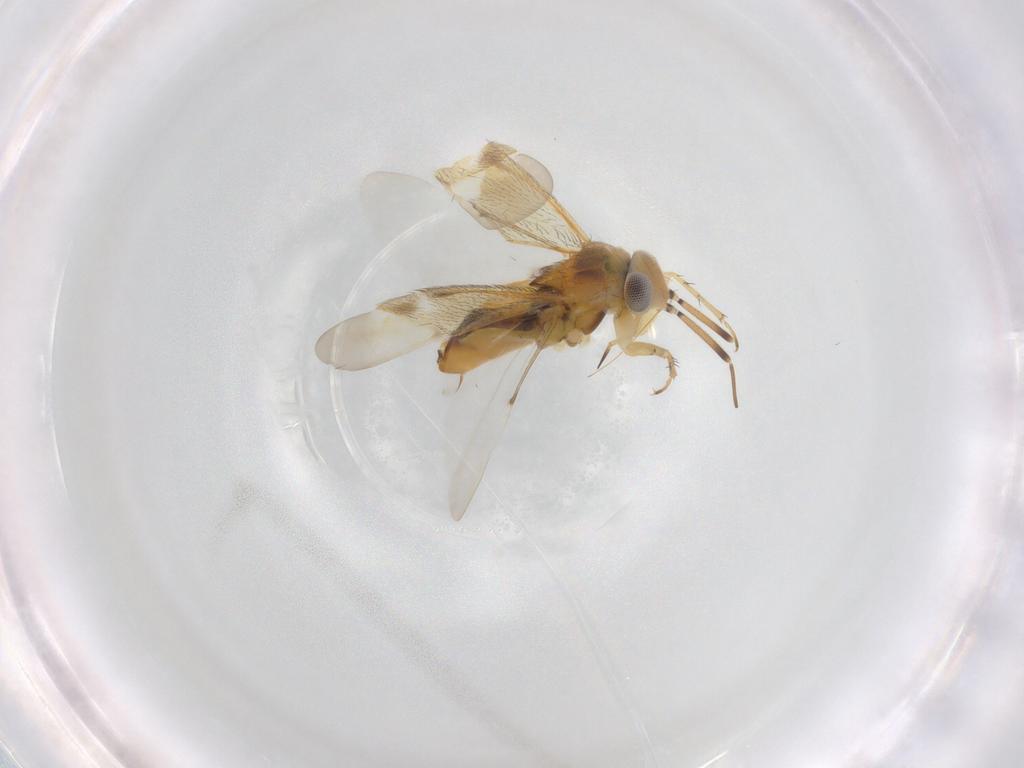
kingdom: Animalia
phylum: Arthropoda
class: Insecta
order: Hemiptera
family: Miridae
